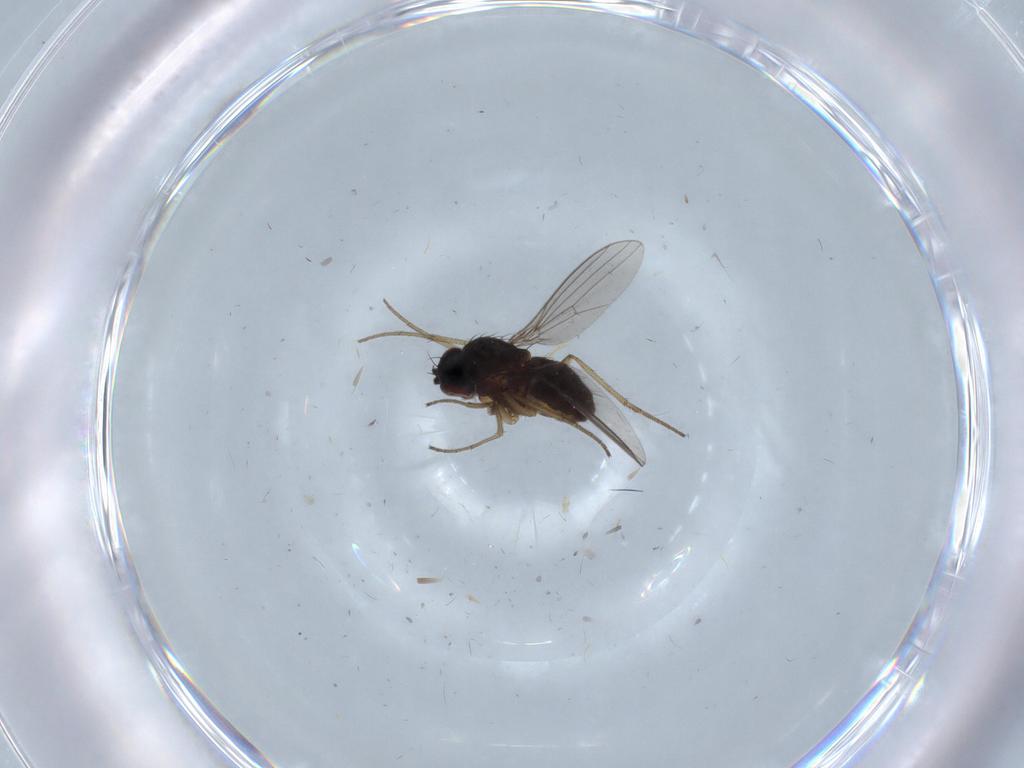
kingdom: Animalia
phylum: Arthropoda
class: Insecta
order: Diptera
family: Dolichopodidae
